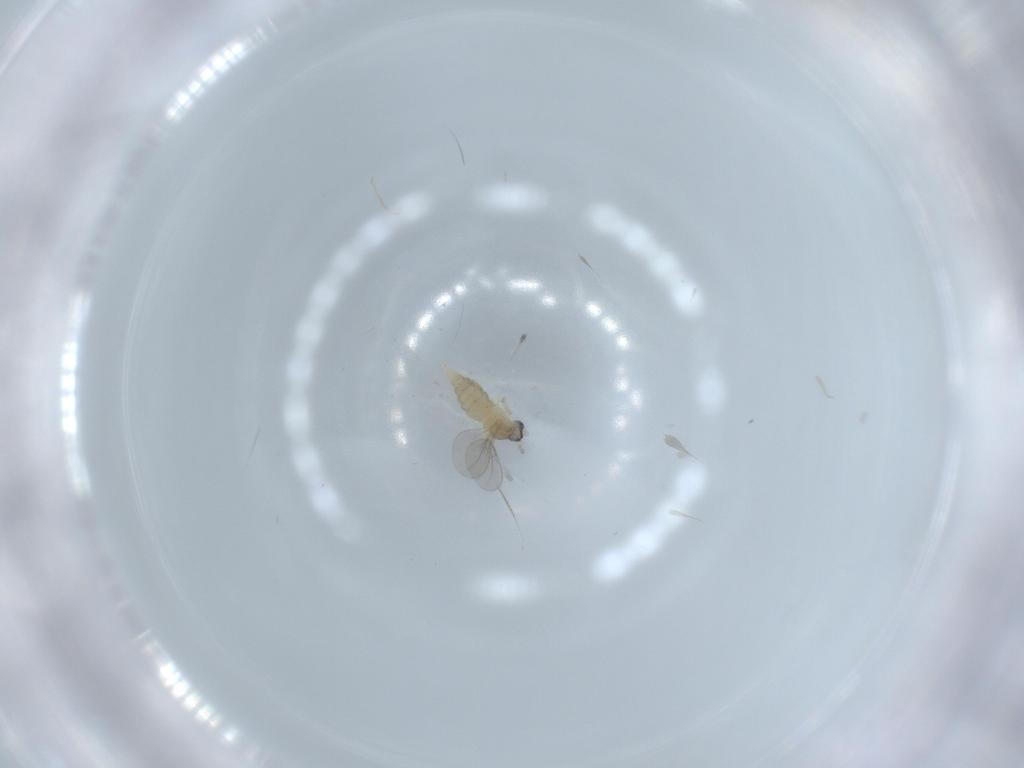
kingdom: Animalia
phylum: Arthropoda
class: Insecta
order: Diptera
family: Cecidomyiidae
